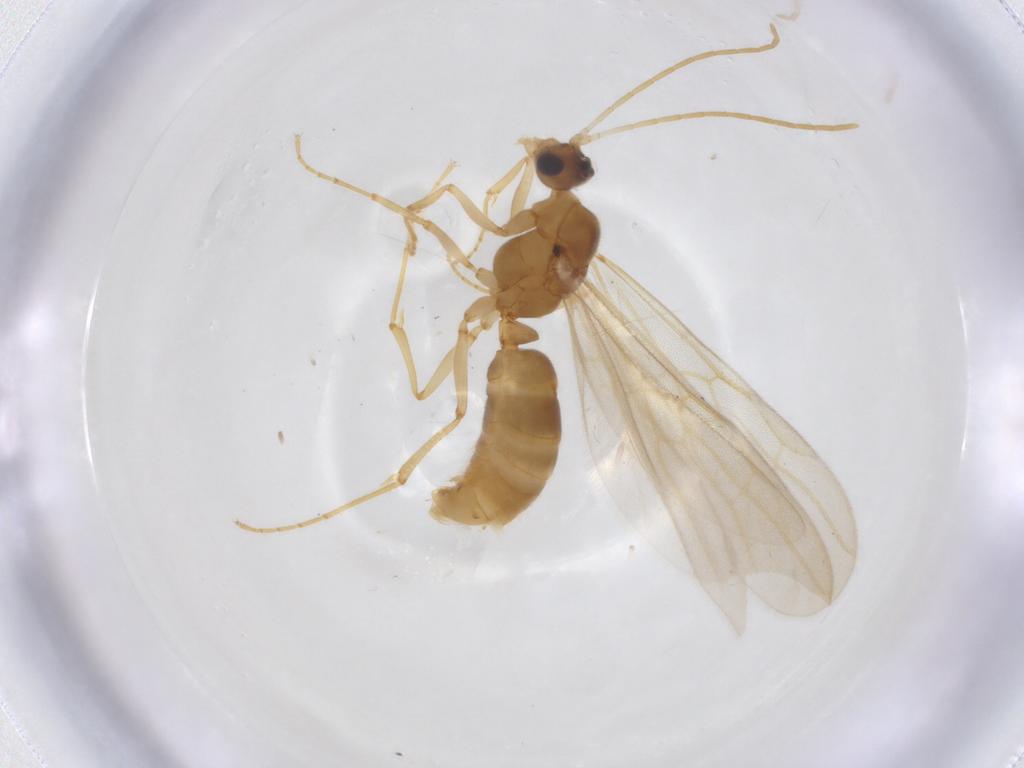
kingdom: Animalia
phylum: Arthropoda
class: Insecta
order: Hymenoptera
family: Formicidae
